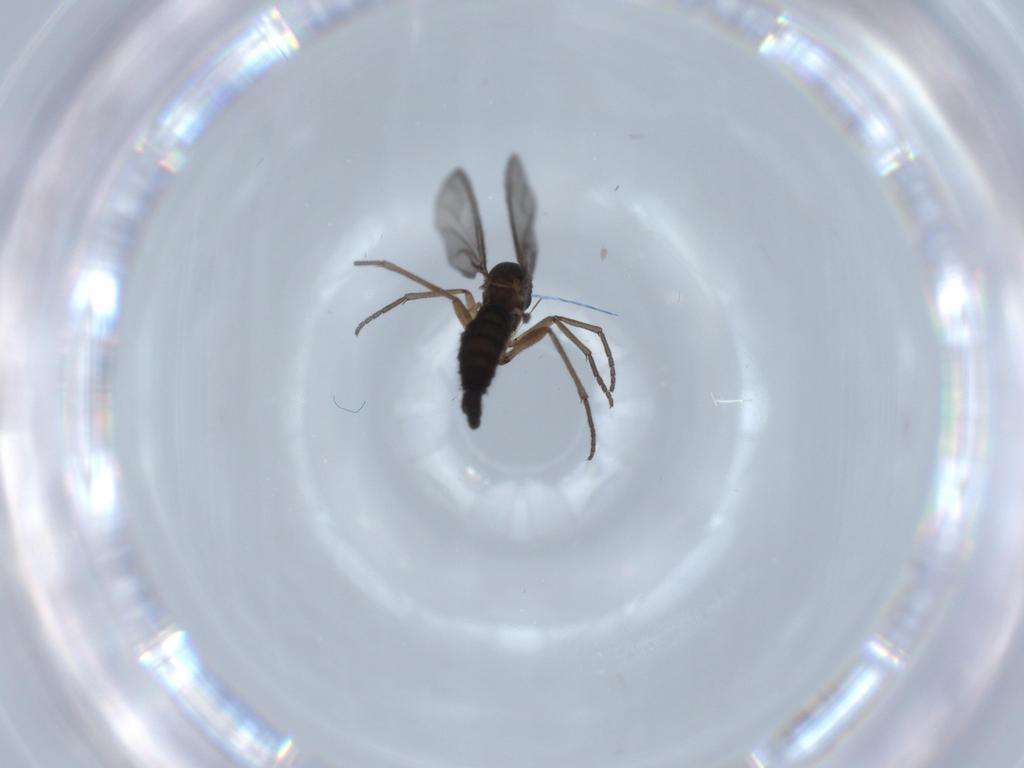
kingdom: Animalia
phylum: Arthropoda
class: Insecta
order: Diptera
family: Sciaridae
